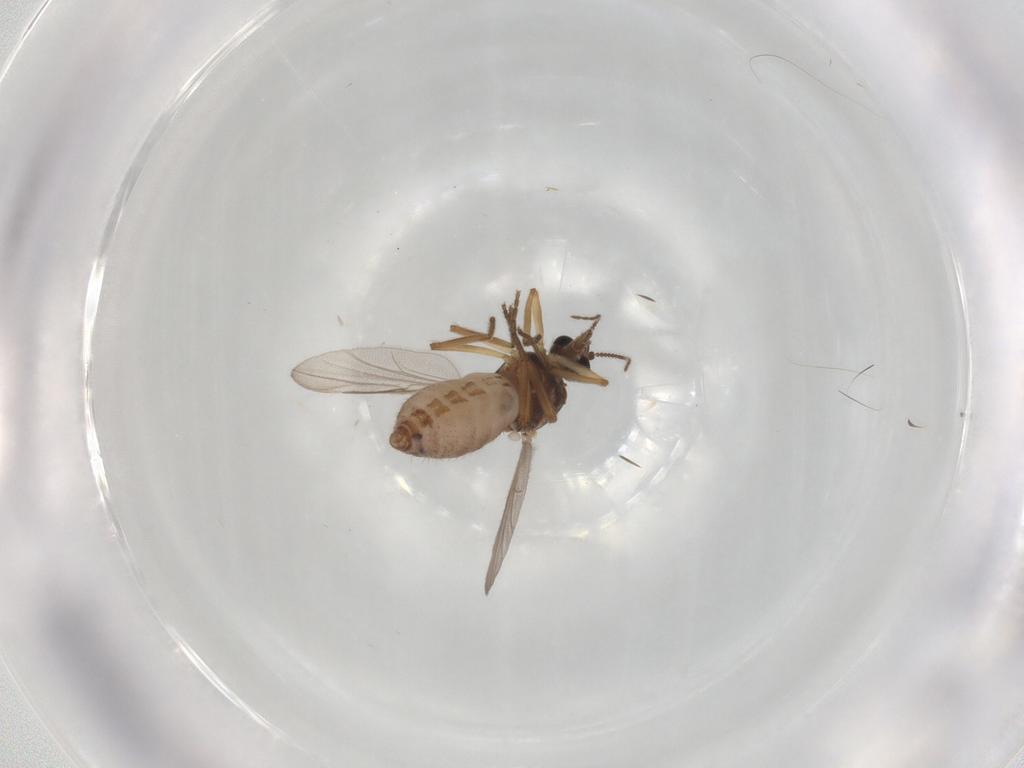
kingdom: Animalia
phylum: Arthropoda
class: Insecta
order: Diptera
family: Ceratopogonidae
